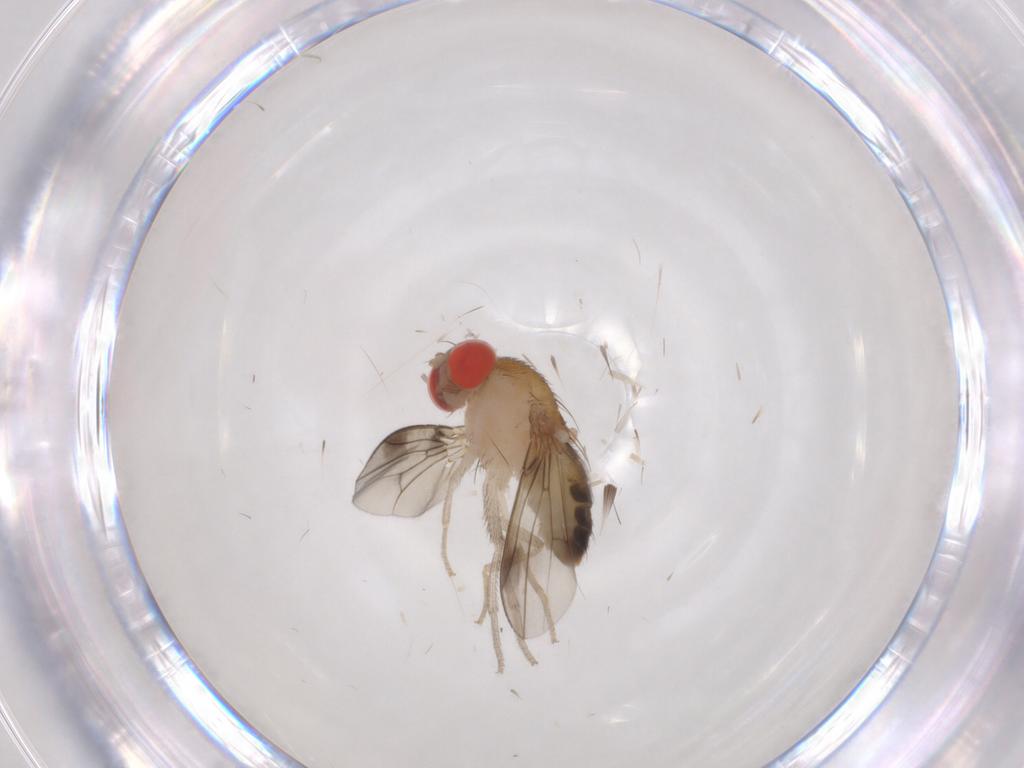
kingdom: Animalia
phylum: Arthropoda
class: Insecta
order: Diptera
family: Drosophilidae
